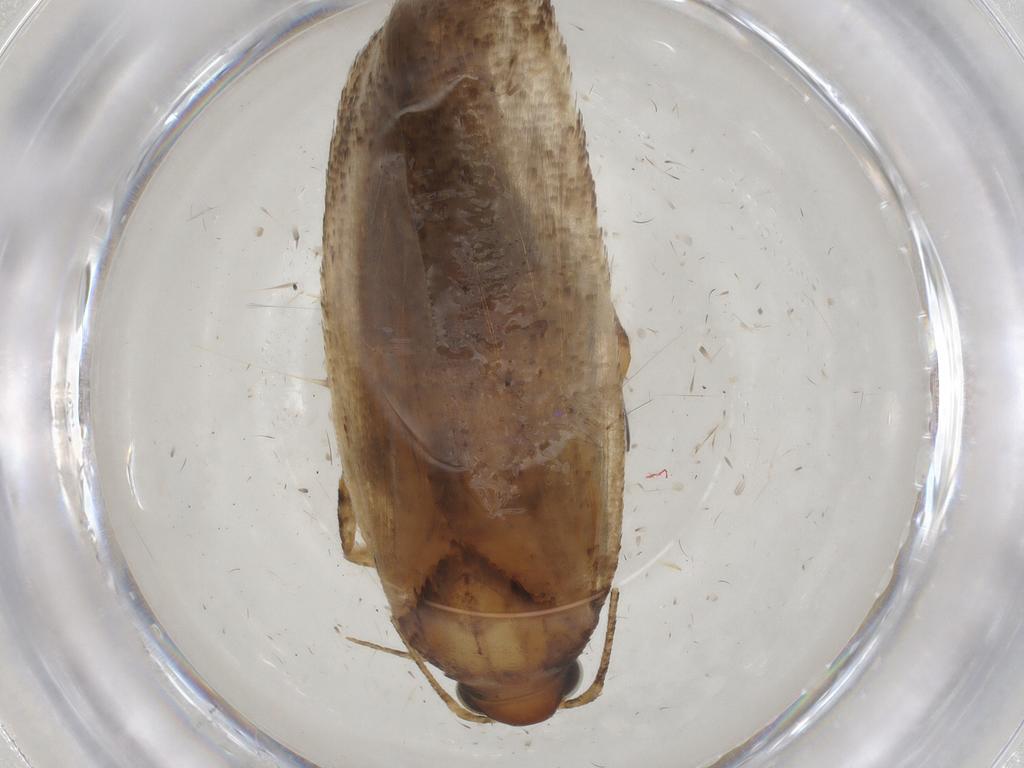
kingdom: Animalia
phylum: Arthropoda
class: Insecta
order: Lepidoptera
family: Gelechiidae
